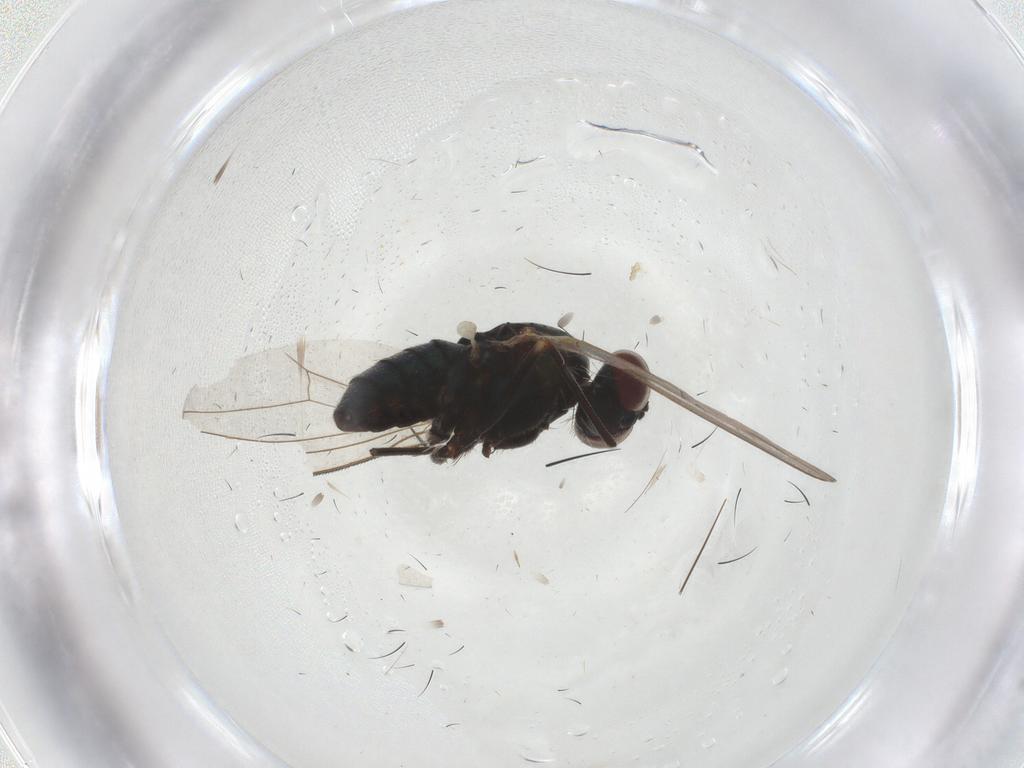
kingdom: Animalia
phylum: Arthropoda
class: Insecta
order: Diptera
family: Dolichopodidae
